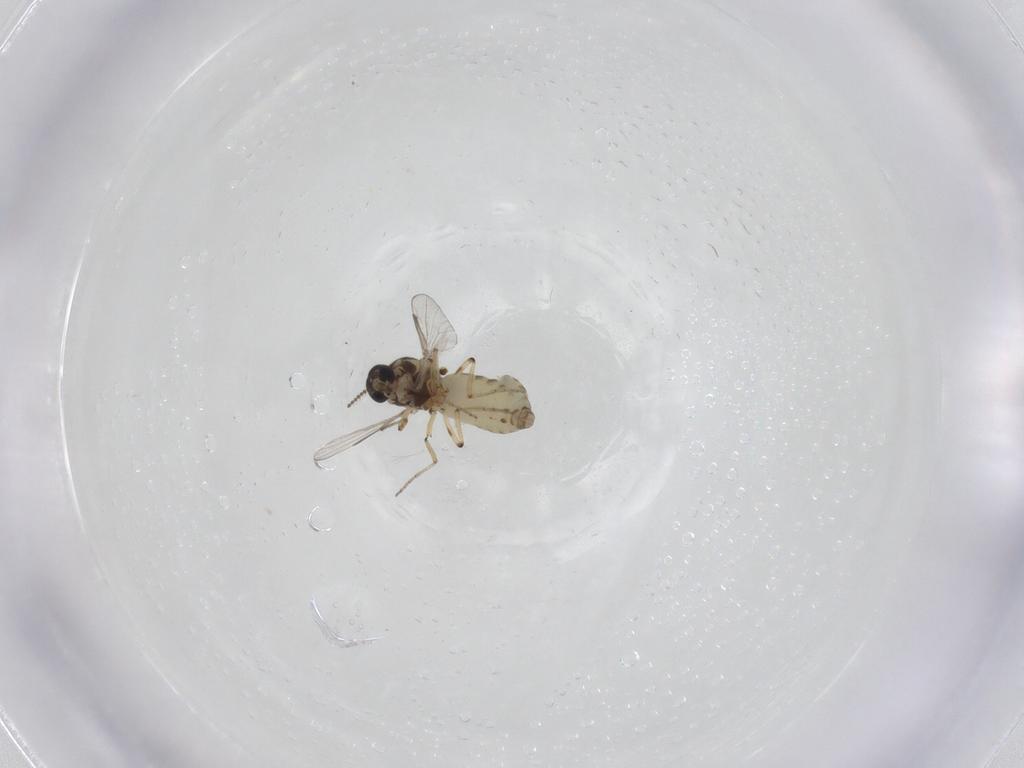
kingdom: Animalia
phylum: Arthropoda
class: Insecta
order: Diptera
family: Ceratopogonidae
